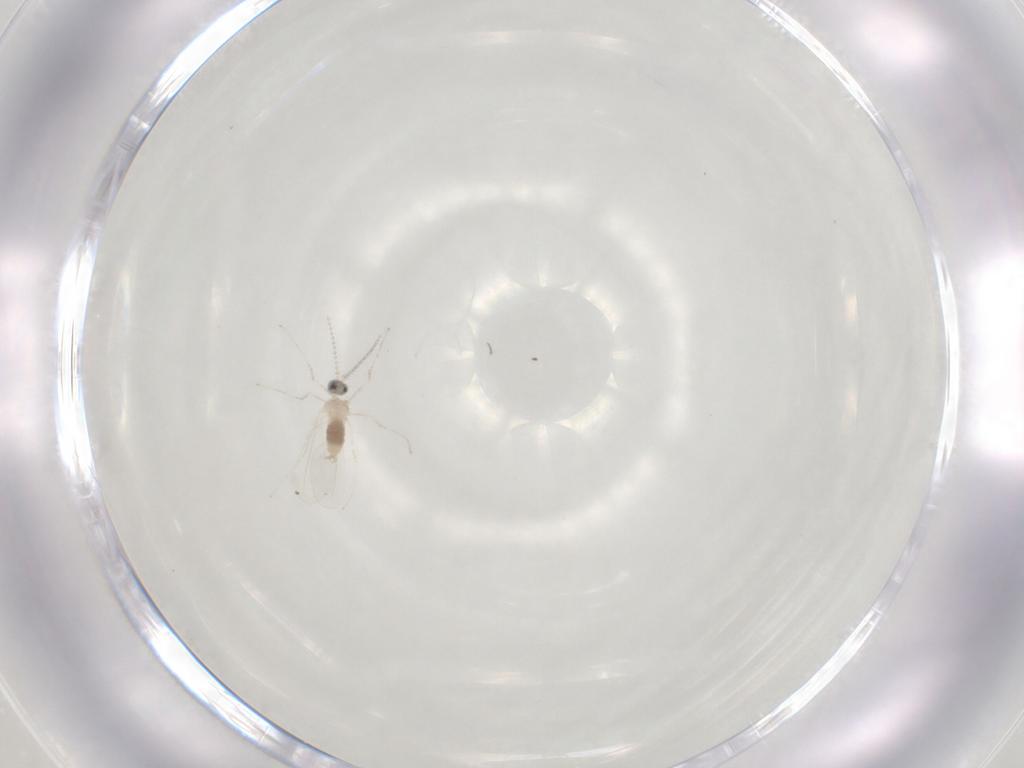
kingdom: Animalia
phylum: Arthropoda
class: Insecta
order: Diptera
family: Cecidomyiidae
